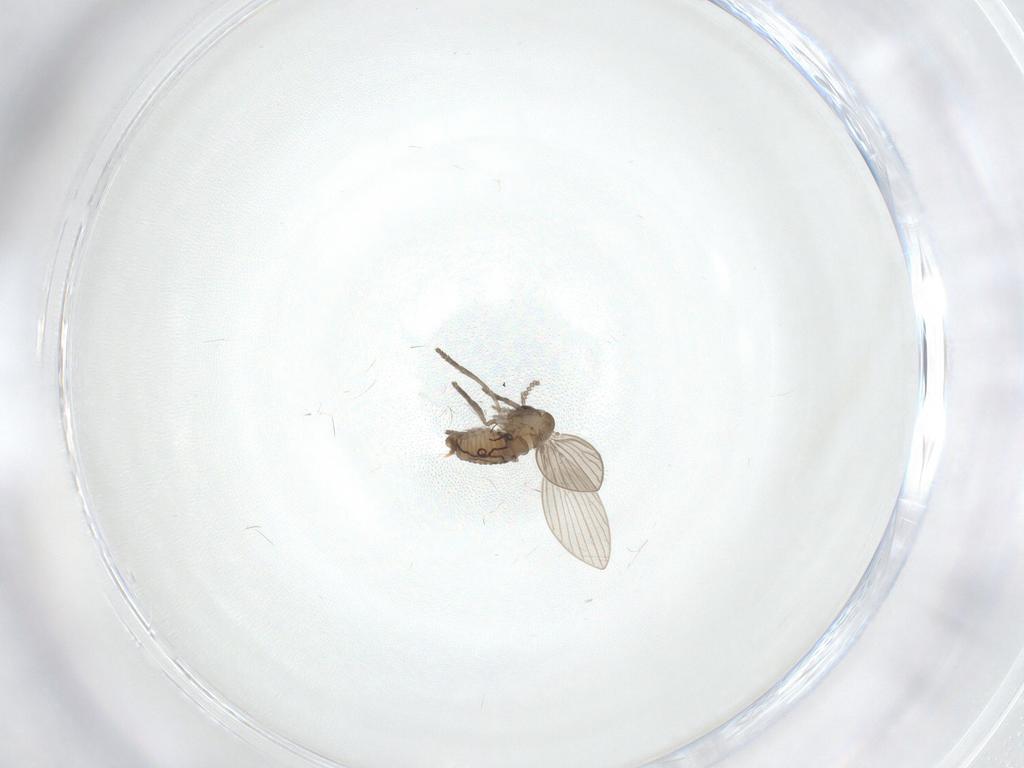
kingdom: Animalia
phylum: Arthropoda
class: Insecta
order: Diptera
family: Psychodidae
